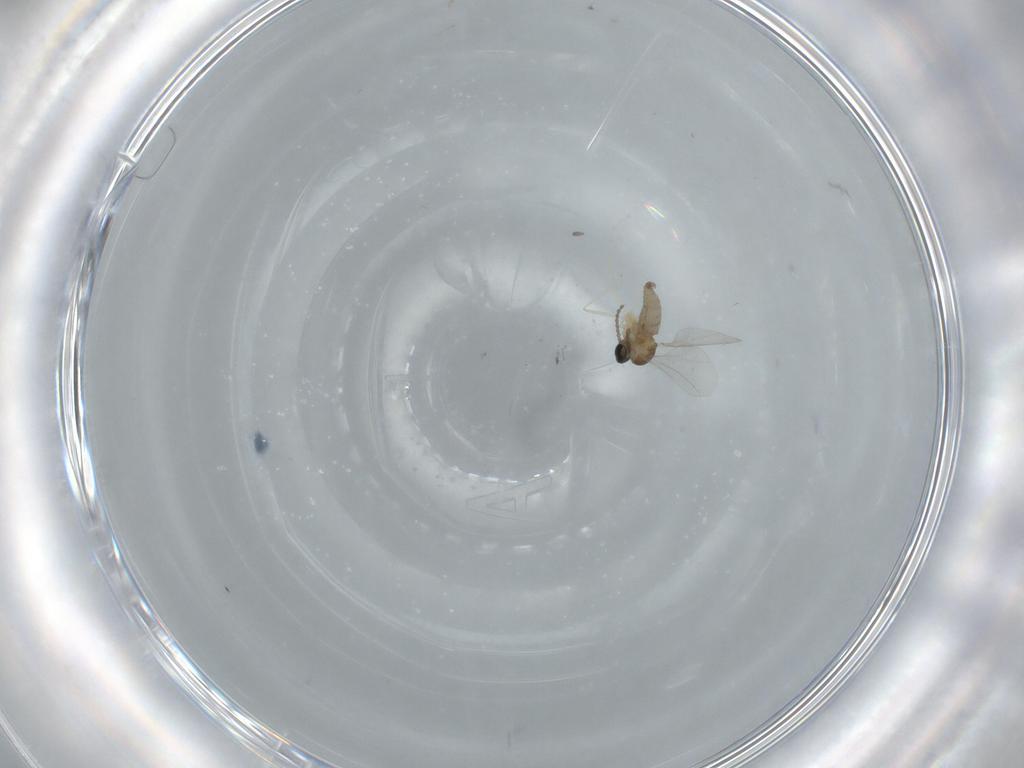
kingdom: Animalia
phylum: Arthropoda
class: Insecta
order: Diptera
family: Cecidomyiidae
